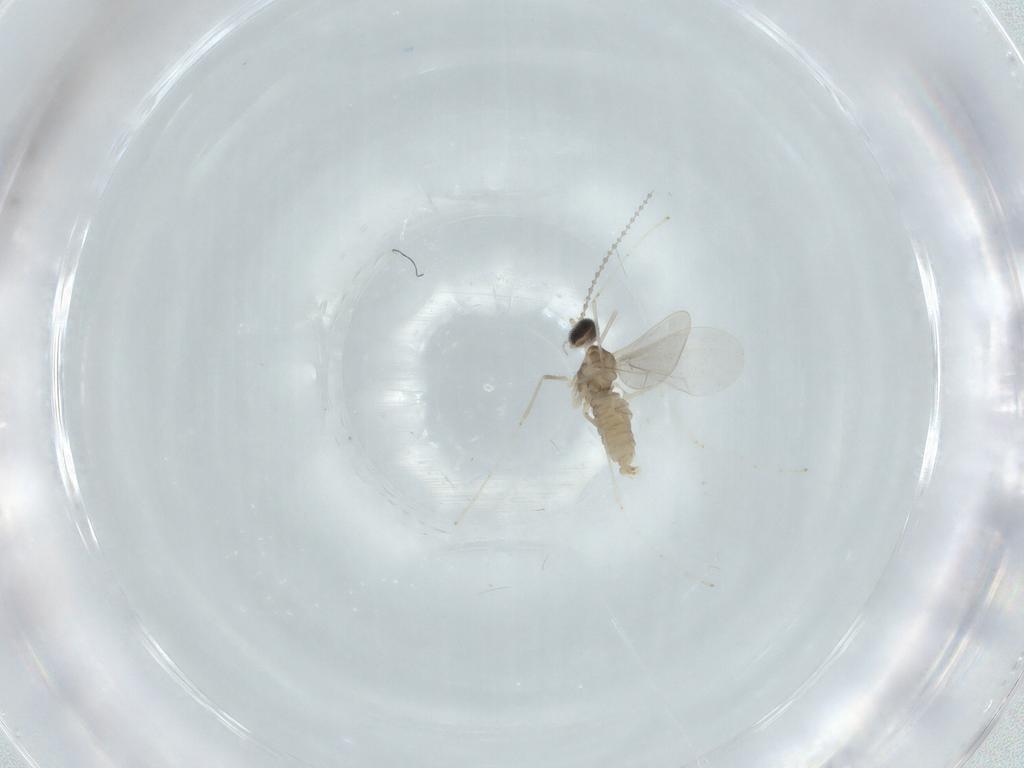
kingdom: Animalia
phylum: Arthropoda
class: Insecta
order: Diptera
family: Cecidomyiidae
